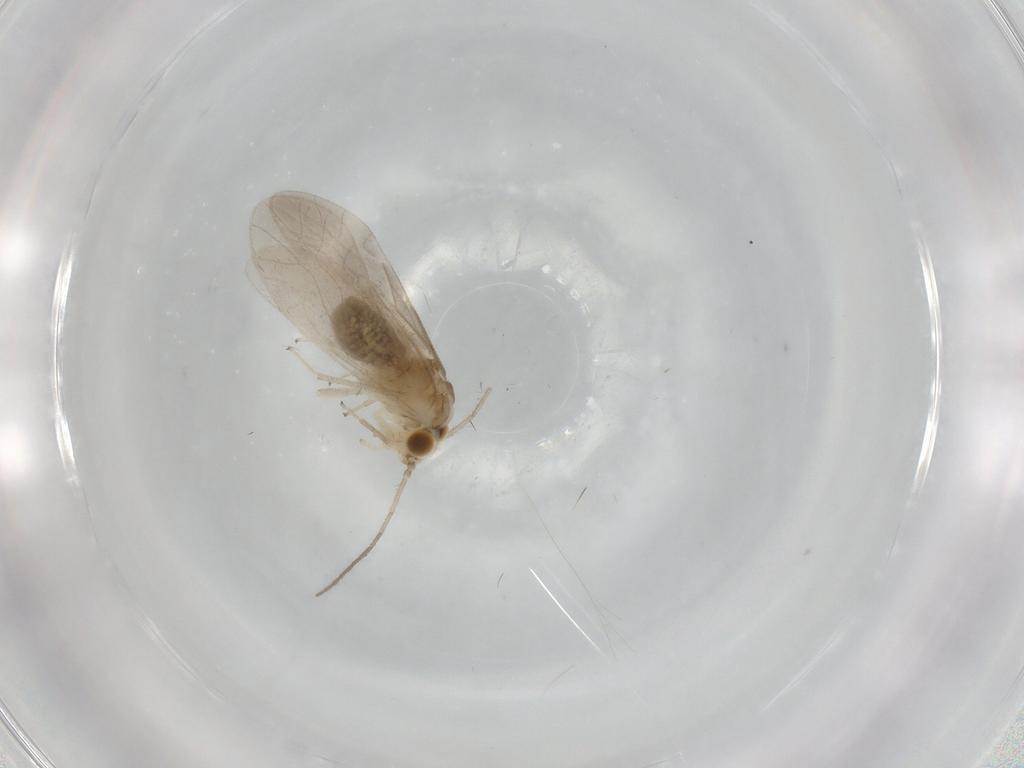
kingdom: Animalia
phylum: Arthropoda
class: Insecta
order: Psocodea
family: Caeciliusidae
